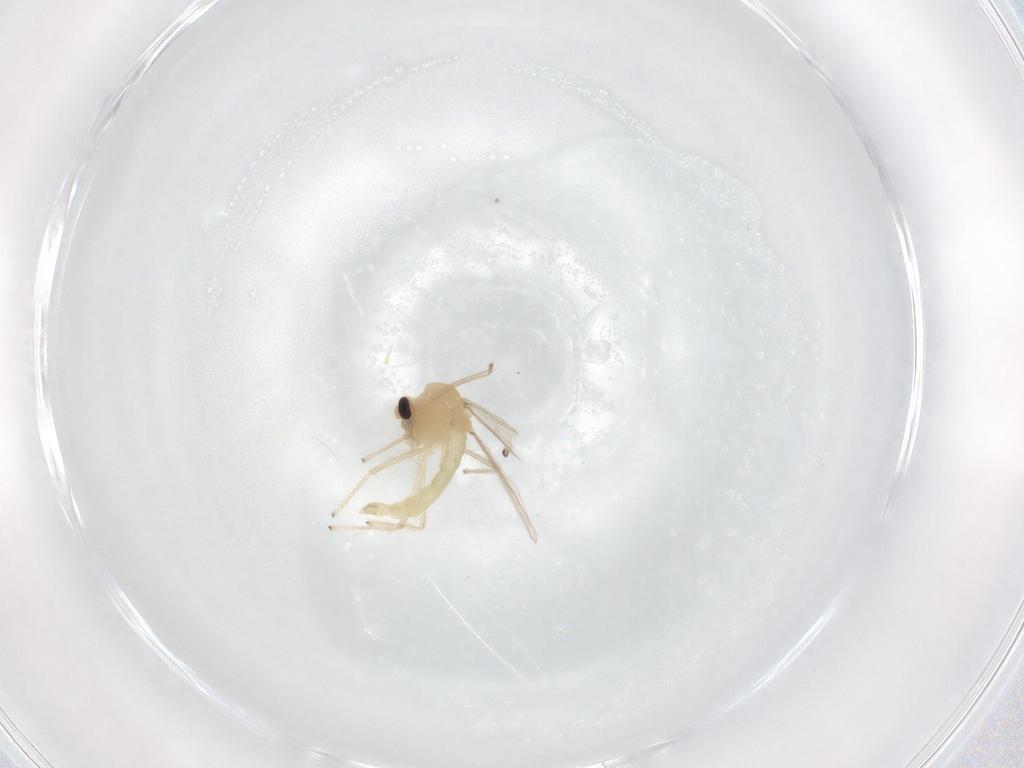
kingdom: Animalia
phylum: Arthropoda
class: Insecta
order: Diptera
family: Chironomidae
